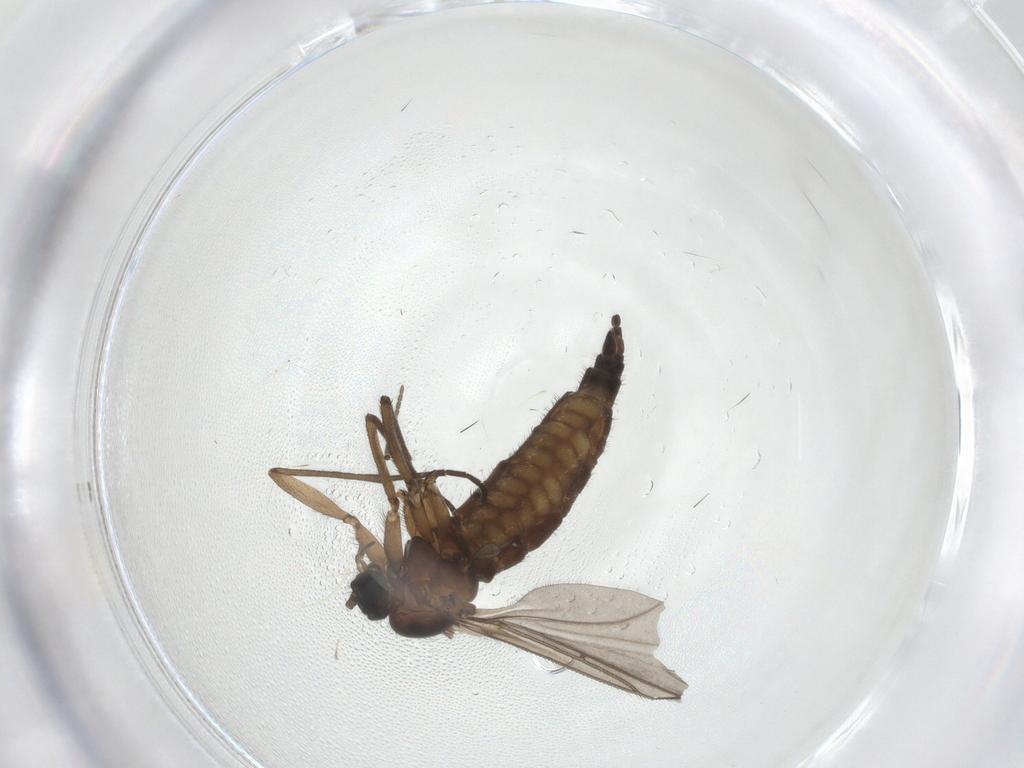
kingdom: Animalia
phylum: Arthropoda
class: Insecta
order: Diptera
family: Sciaridae
